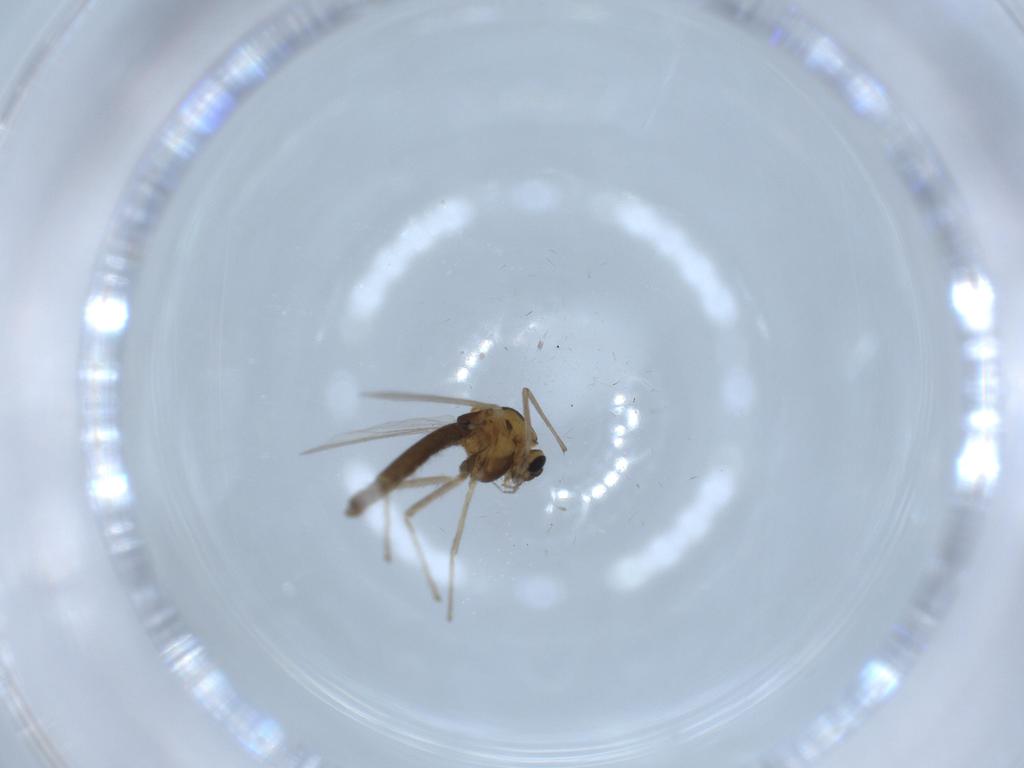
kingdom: Animalia
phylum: Arthropoda
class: Insecta
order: Diptera
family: Chironomidae
